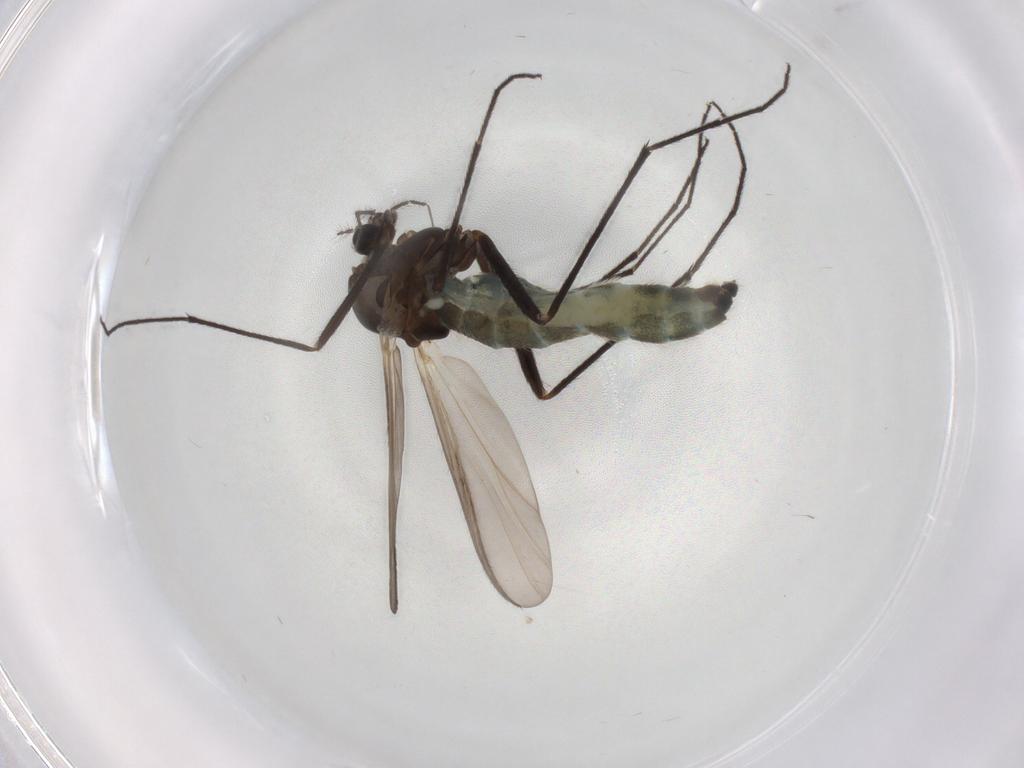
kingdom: Animalia
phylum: Arthropoda
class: Insecta
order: Diptera
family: Chironomidae
